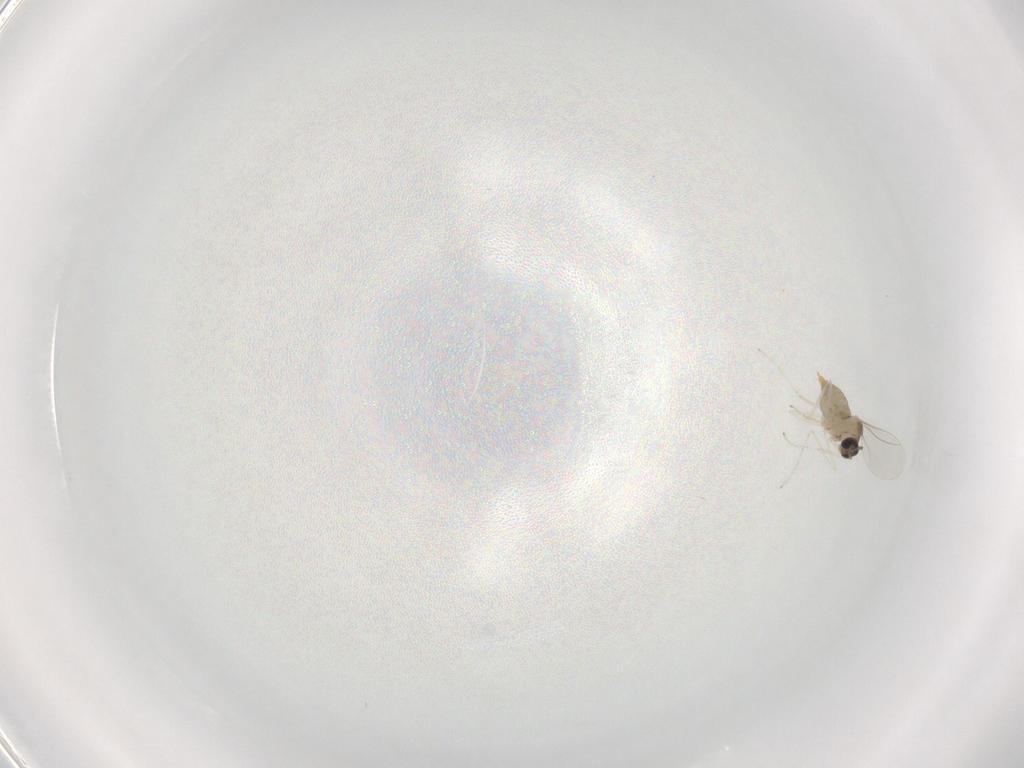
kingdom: Animalia
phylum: Arthropoda
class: Insecta
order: Diptera
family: Cecidomyiidae
